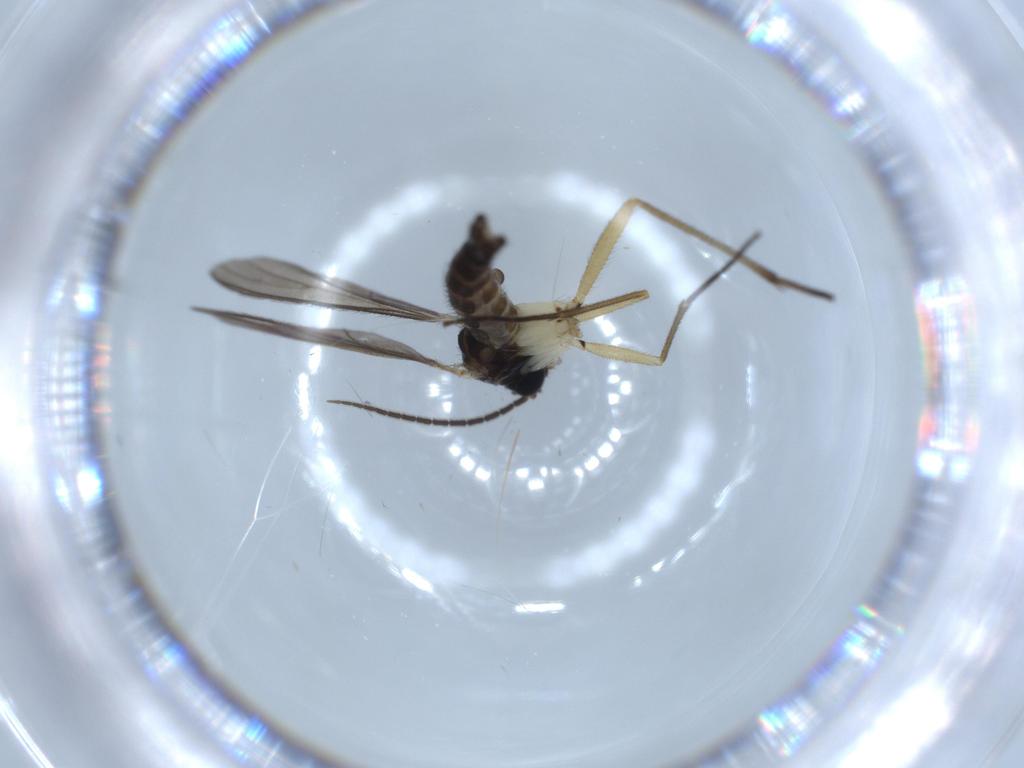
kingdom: Animalia
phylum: Arthropoda
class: Insecta
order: Diptera
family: Sciaridae
